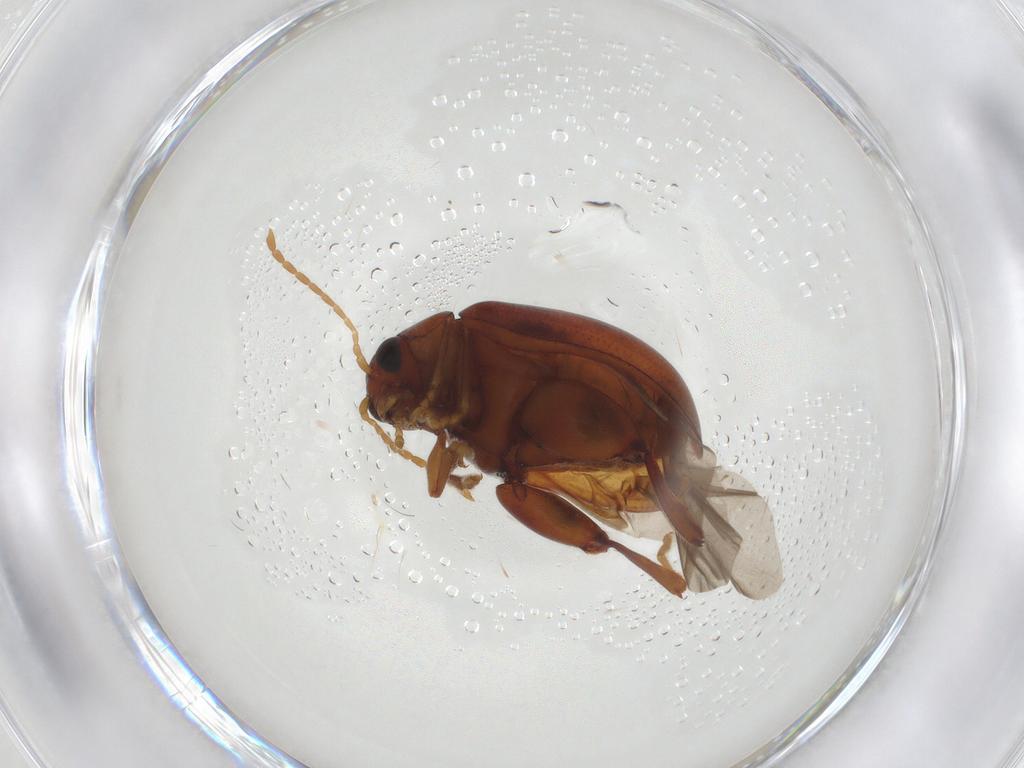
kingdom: Animalia
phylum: Arthropoda
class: Insecta
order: Coleoptera
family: Chrysomelidae
